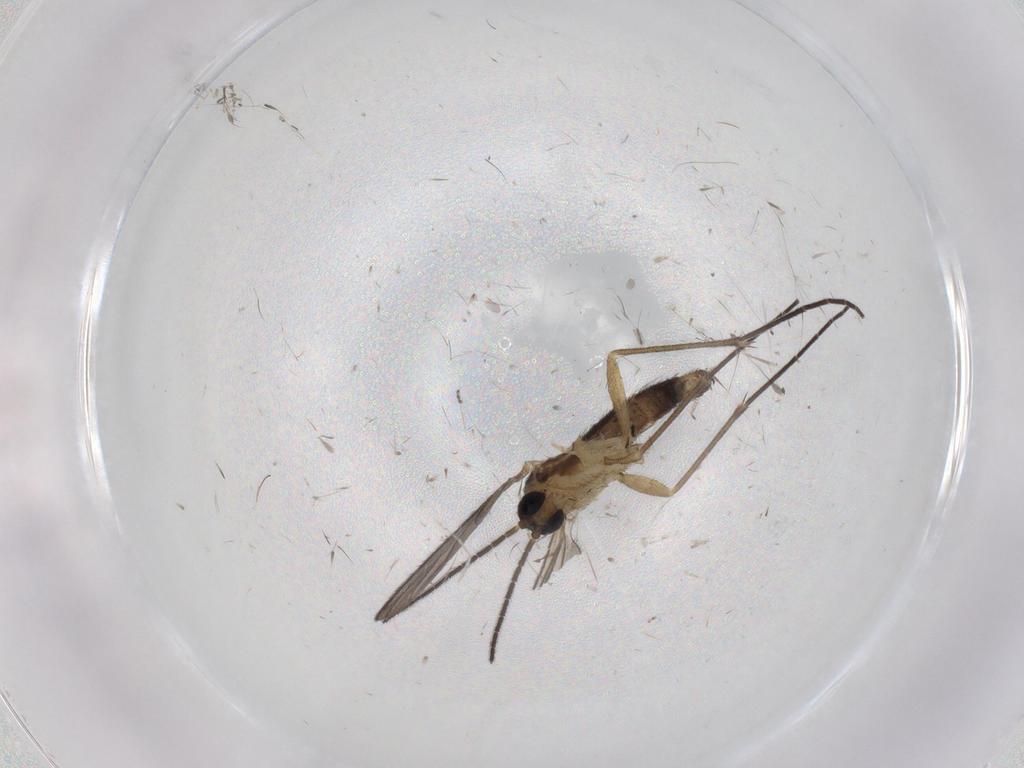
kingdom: Animalia
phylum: Arthropoda
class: Insecta
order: Diptera
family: Cecidomyiidae
